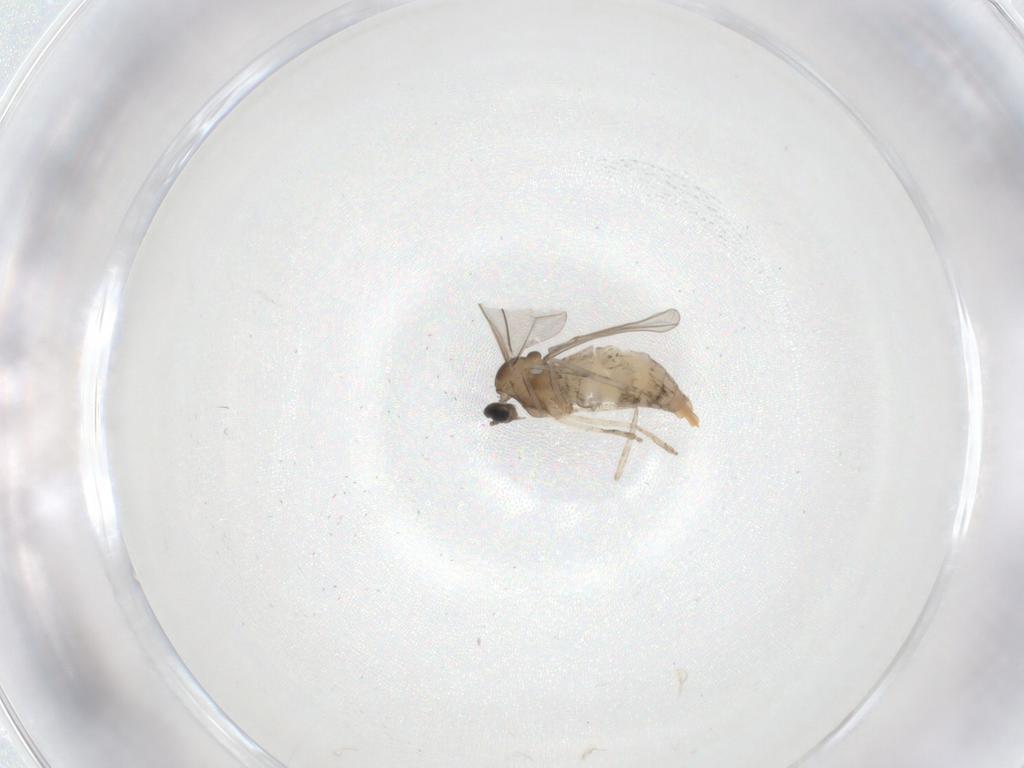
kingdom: Animalia
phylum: Arthropoda
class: Insecta
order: Diptera
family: Cecidomyiidae
